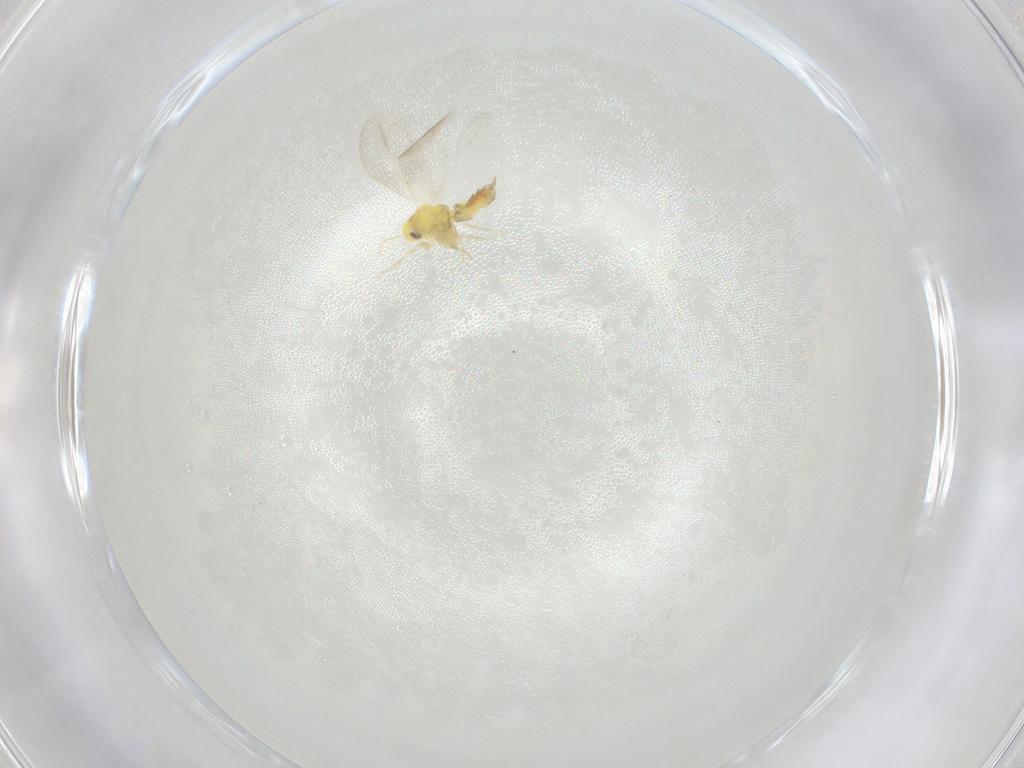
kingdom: Animalia
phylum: Arthropoda
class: Insecta
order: Hemiptera
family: Aleyrodidae
